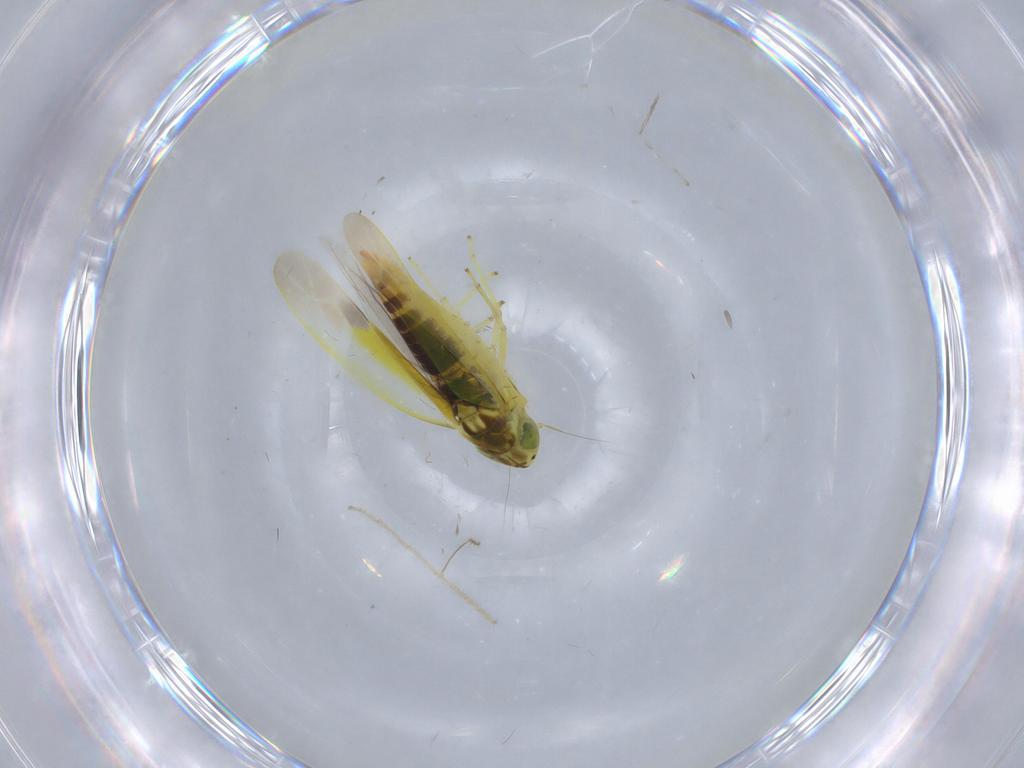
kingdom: Animalia
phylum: Arthropoda
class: Insecta
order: Hemiptera
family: Cicadellidae
